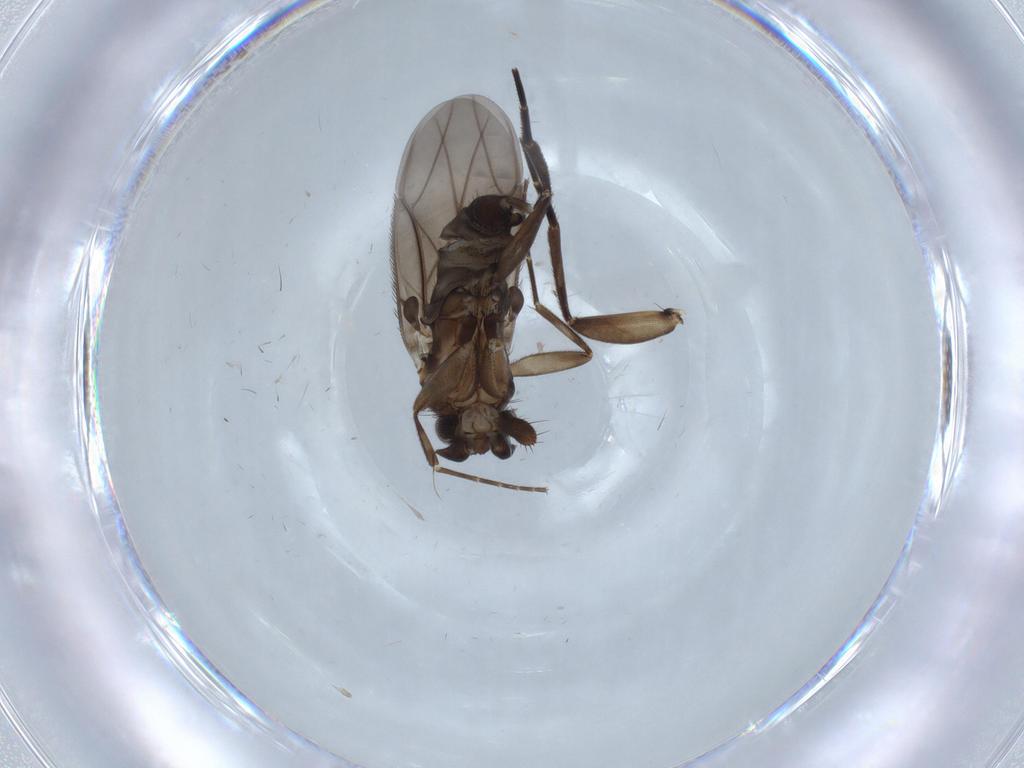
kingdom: Animalia
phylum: Arthropoda
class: Insecta
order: Diptera
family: Phoridae
